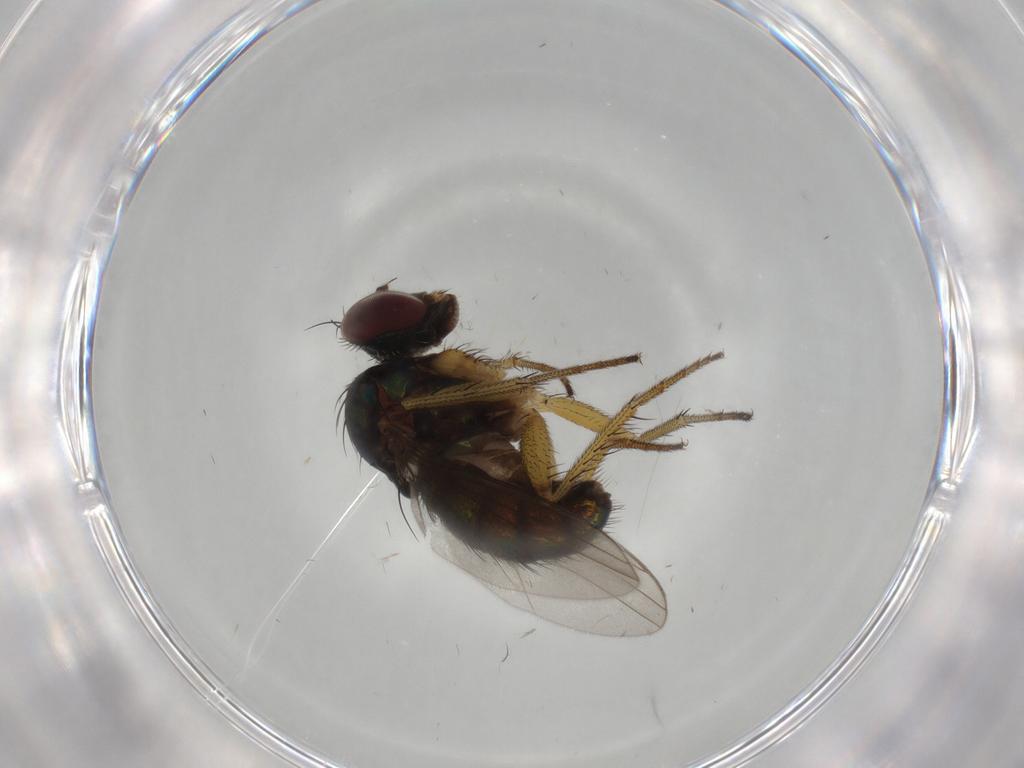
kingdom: Animalia
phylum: Arthropoda
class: Insecta
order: Diptera
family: Dolichopodidae
